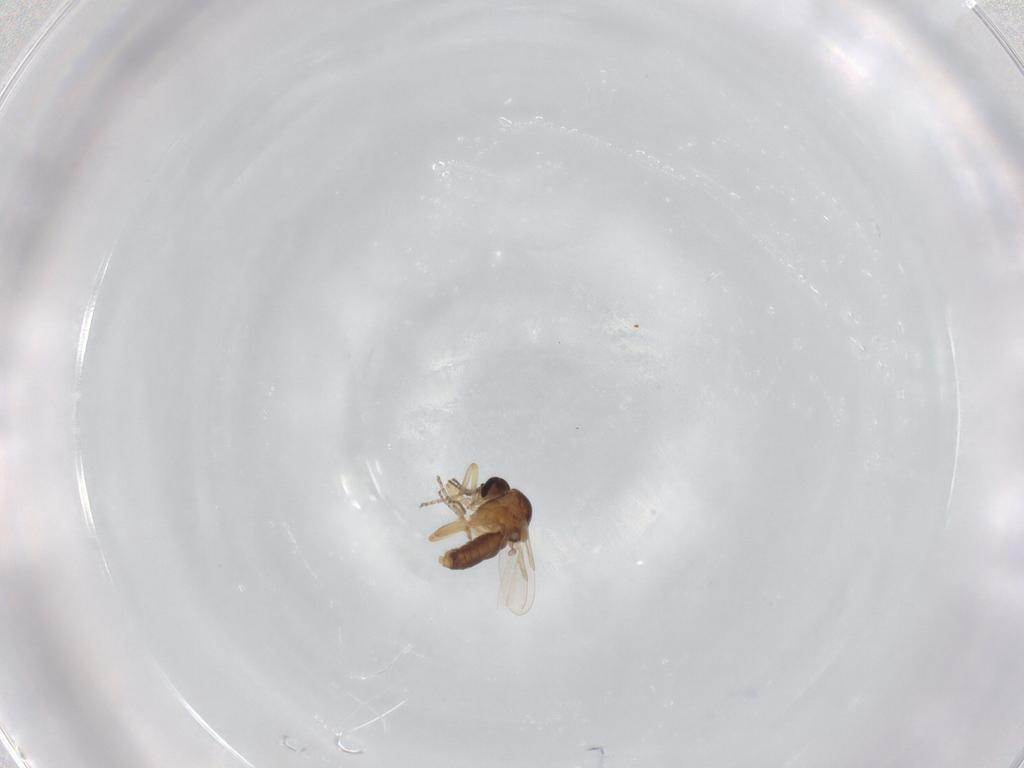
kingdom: Animalia
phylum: Arthropoda
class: Insecta
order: Diptera
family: Ceratopogonidae
